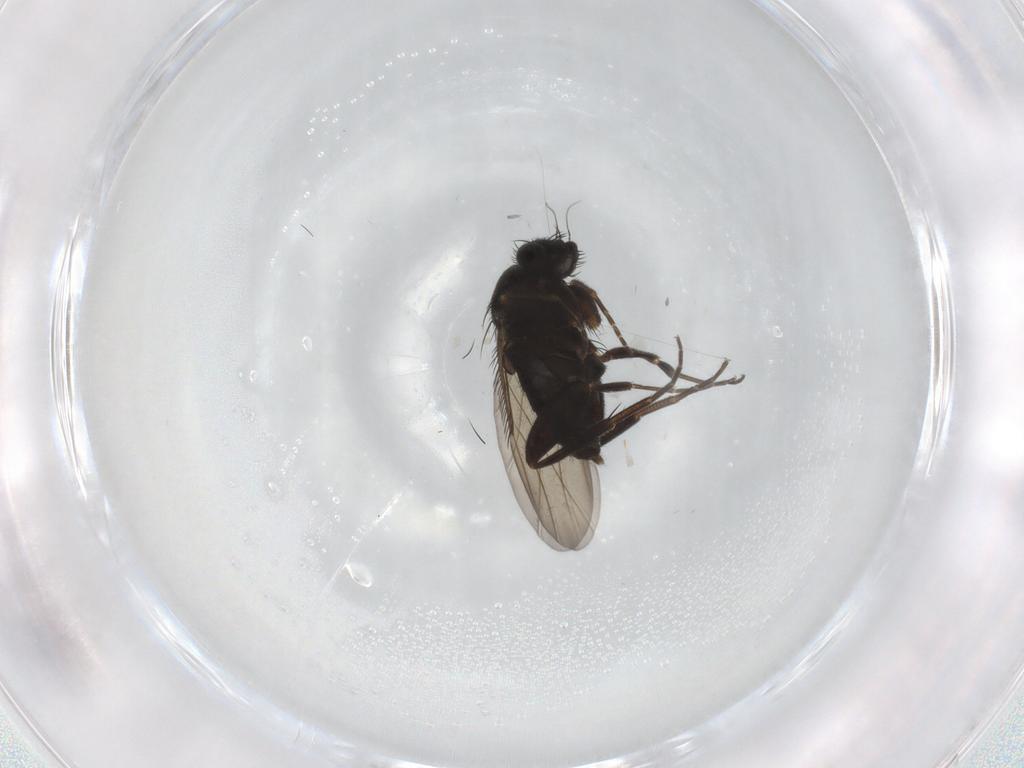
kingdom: Animalia
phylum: Arthropoda
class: Insecta
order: Diptera
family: Phoridae
